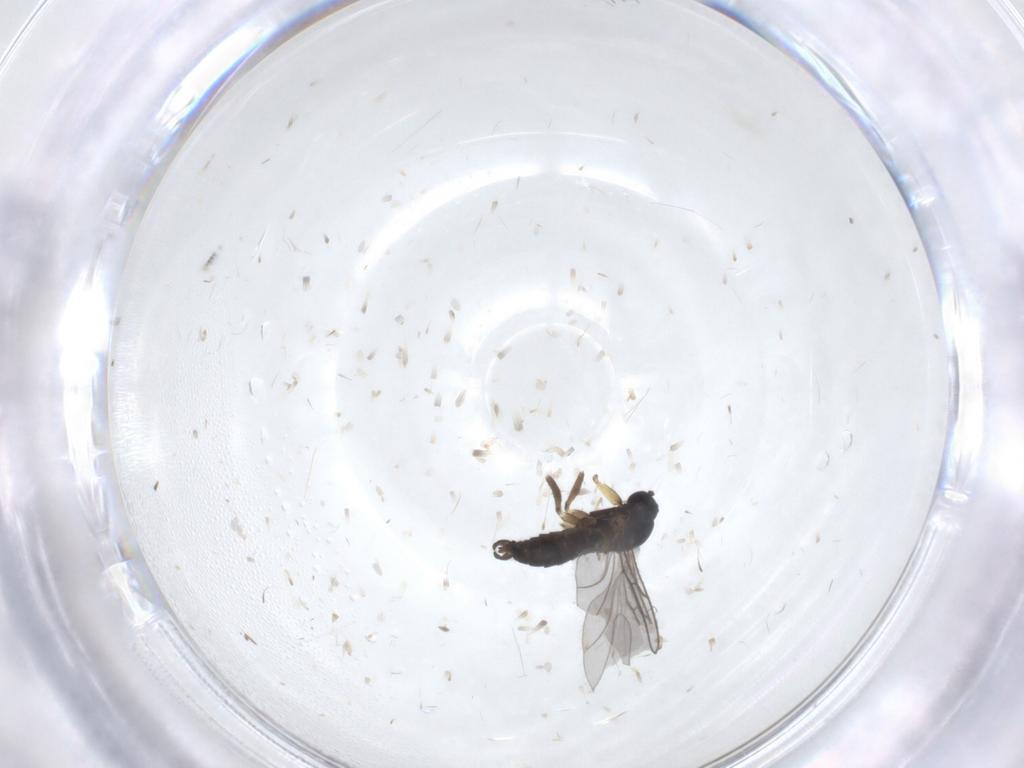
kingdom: Animalia
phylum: Arthropoda
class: Insecta
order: Diptera
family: Sciaridae
